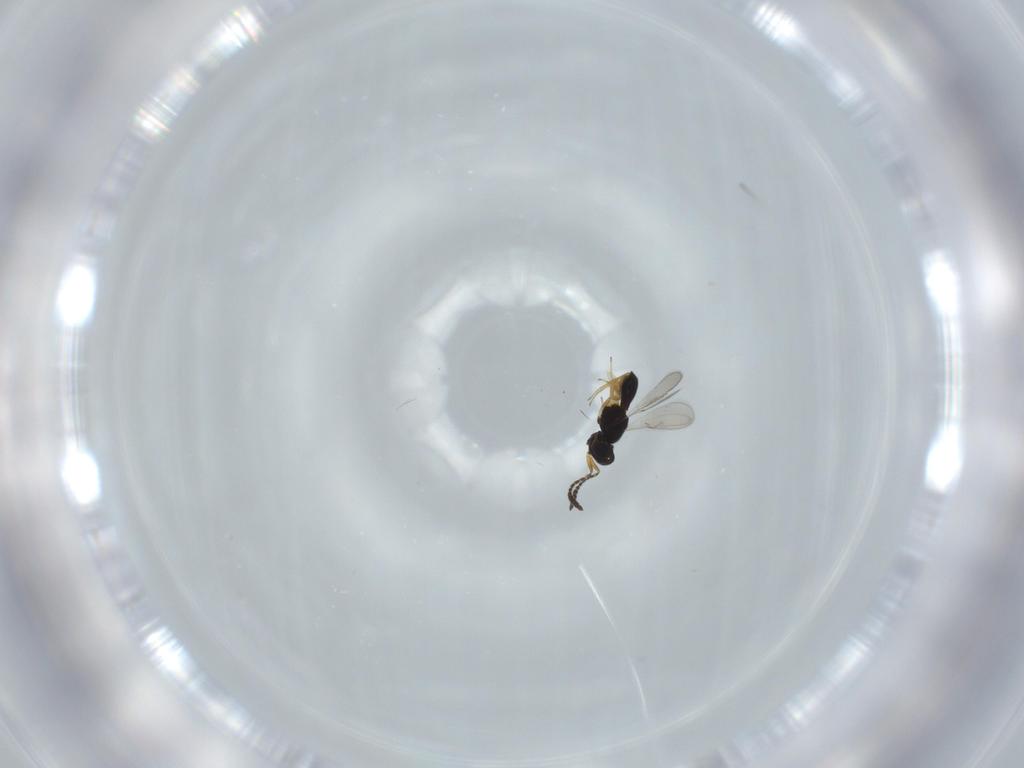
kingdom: Animalia
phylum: Arthropoda
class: Insecta
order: Hymenoptera
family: Scelionidae
